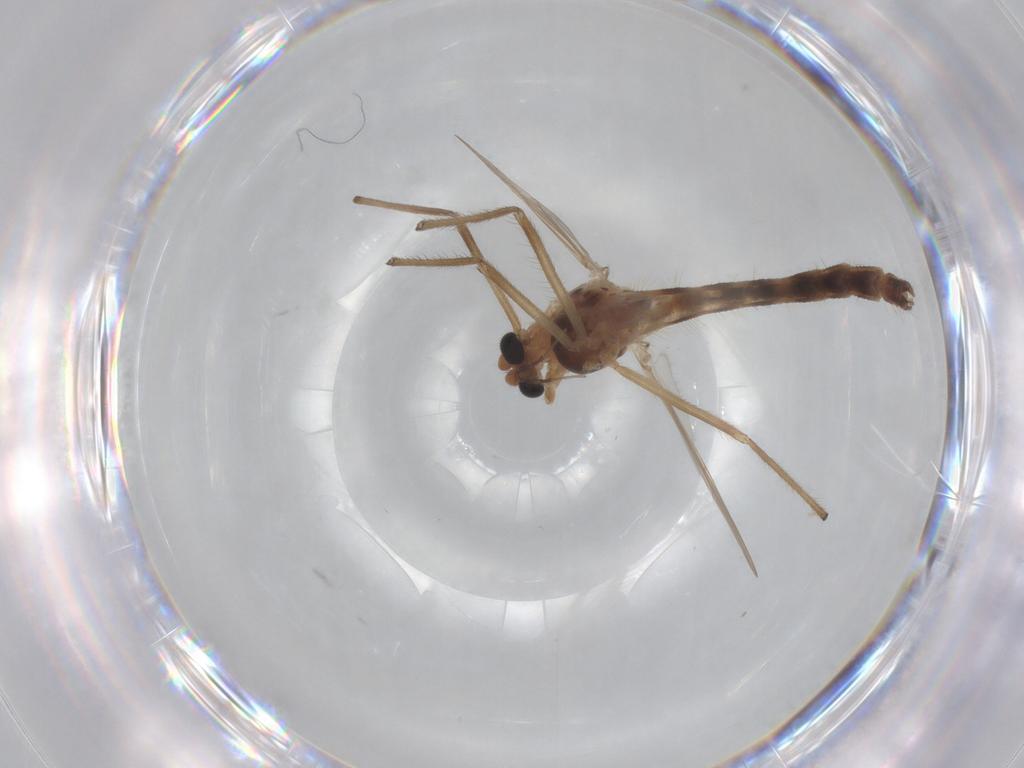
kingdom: Animalia
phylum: Arthropoda
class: Insecta
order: Diptera
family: Chironomidae
